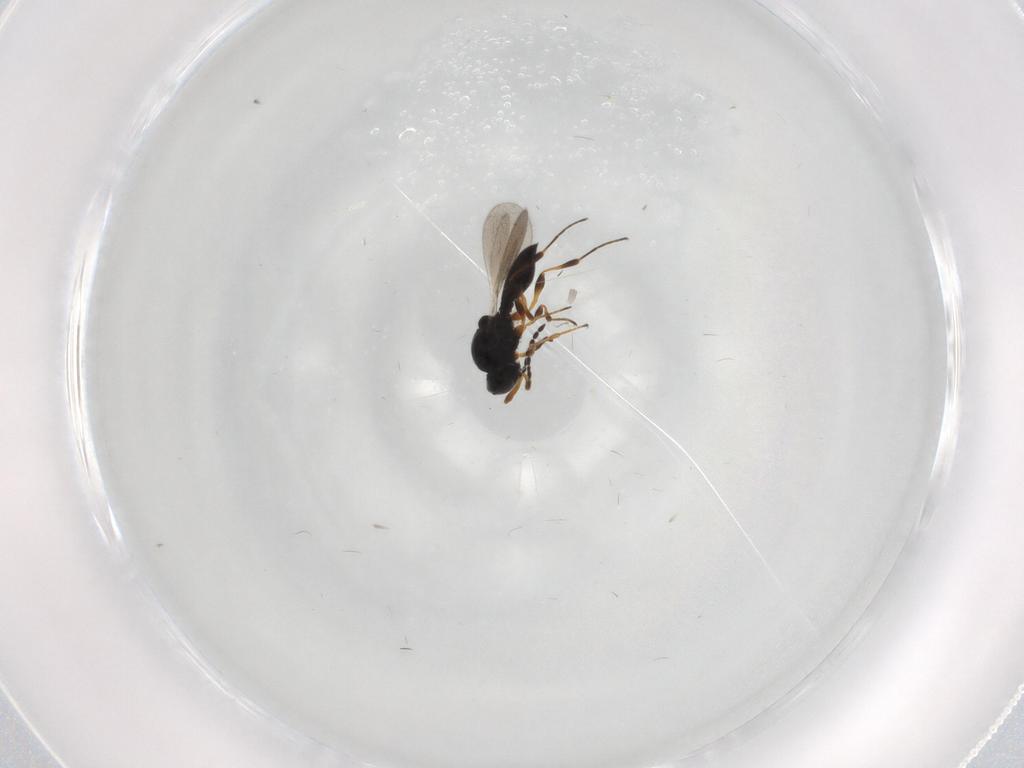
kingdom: Animalia
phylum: Arthropoda
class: Insecta
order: Hymenoptera
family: Platygastridae
